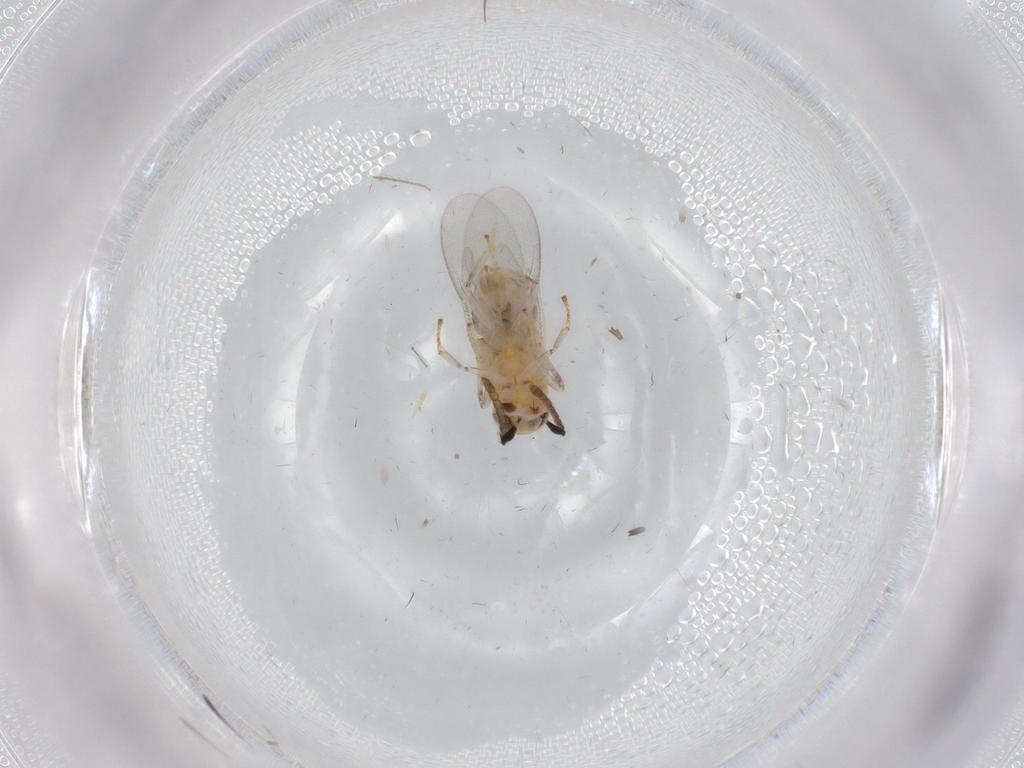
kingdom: Animalia
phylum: Arthropoda
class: Insecta
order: Hymenoptera
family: Encyrtidae
